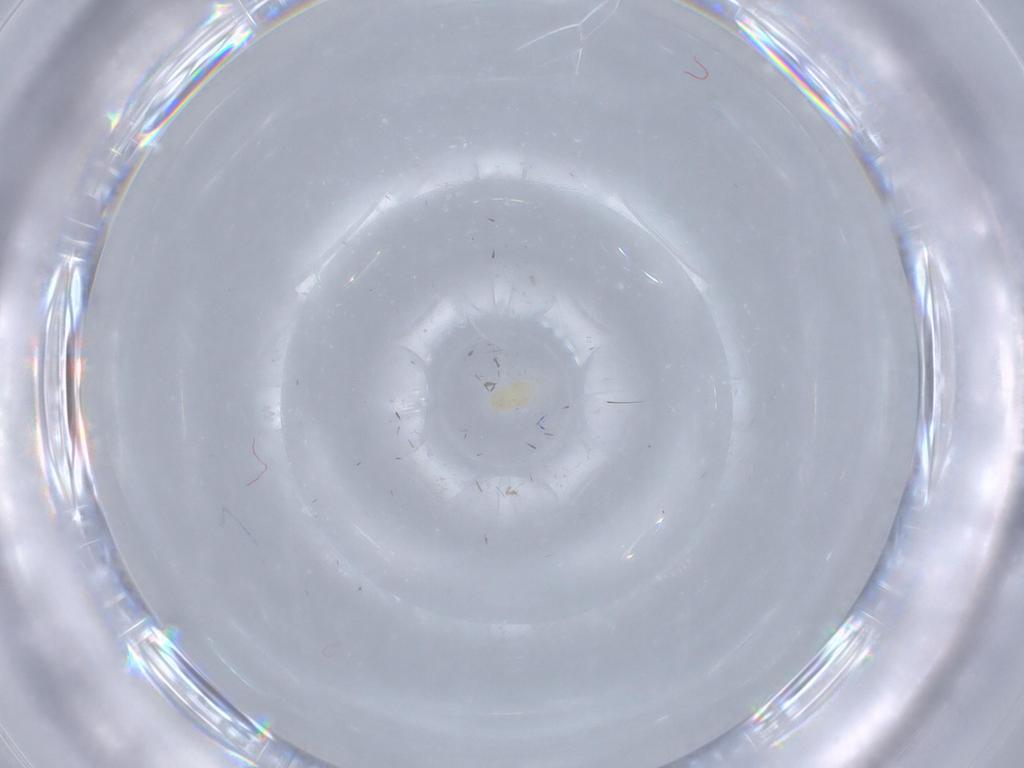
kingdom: Animalia
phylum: Arthropoda
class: Arachnida
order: Trombidiformes
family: Eupodidae
